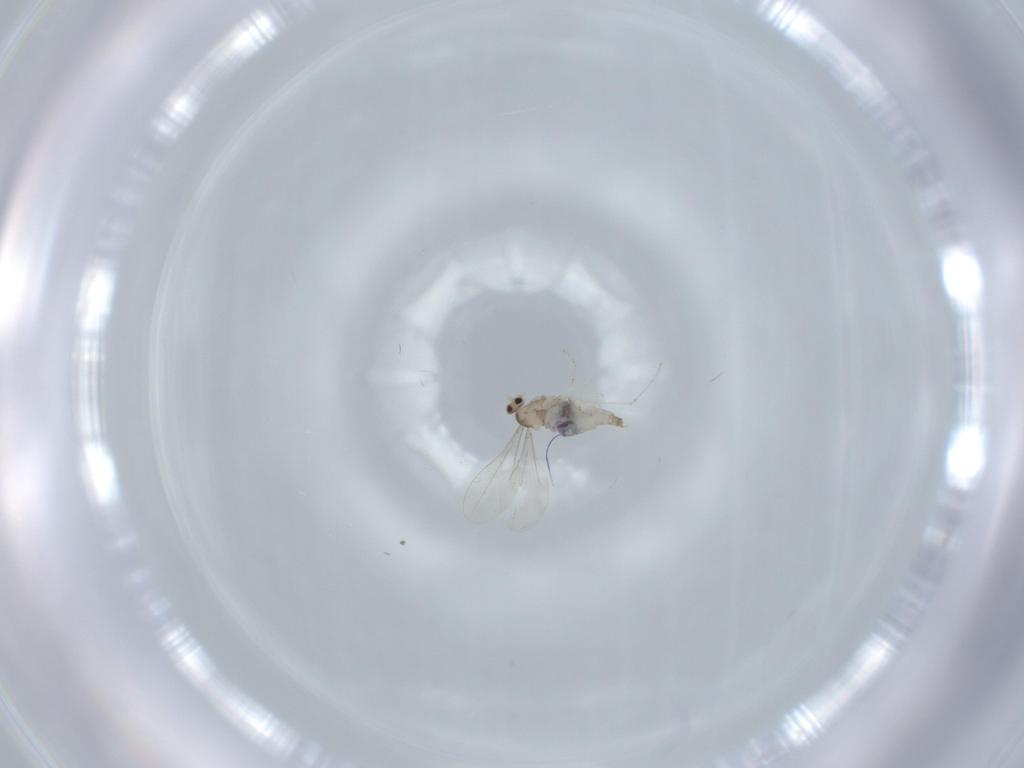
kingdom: Animalia
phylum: Arthropoda
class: Insecta
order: Diptera
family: Cecidomyiidae
